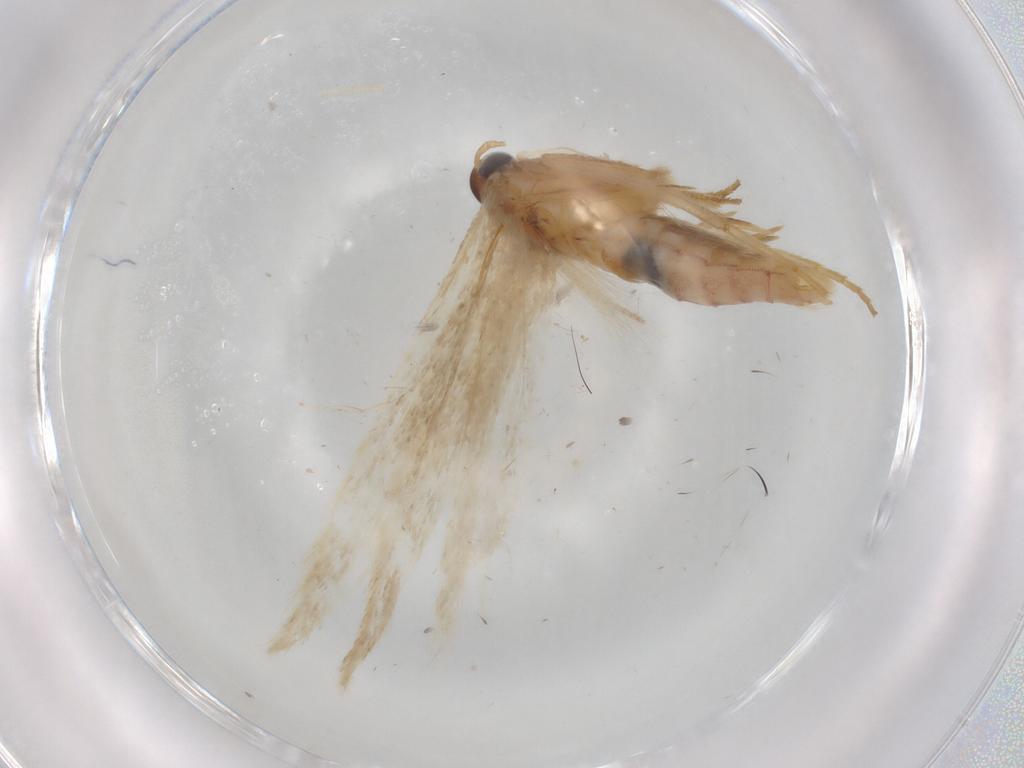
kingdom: Animalia
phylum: Arthropoda
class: Insecta
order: Lepidoptera
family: Gelechiidae
